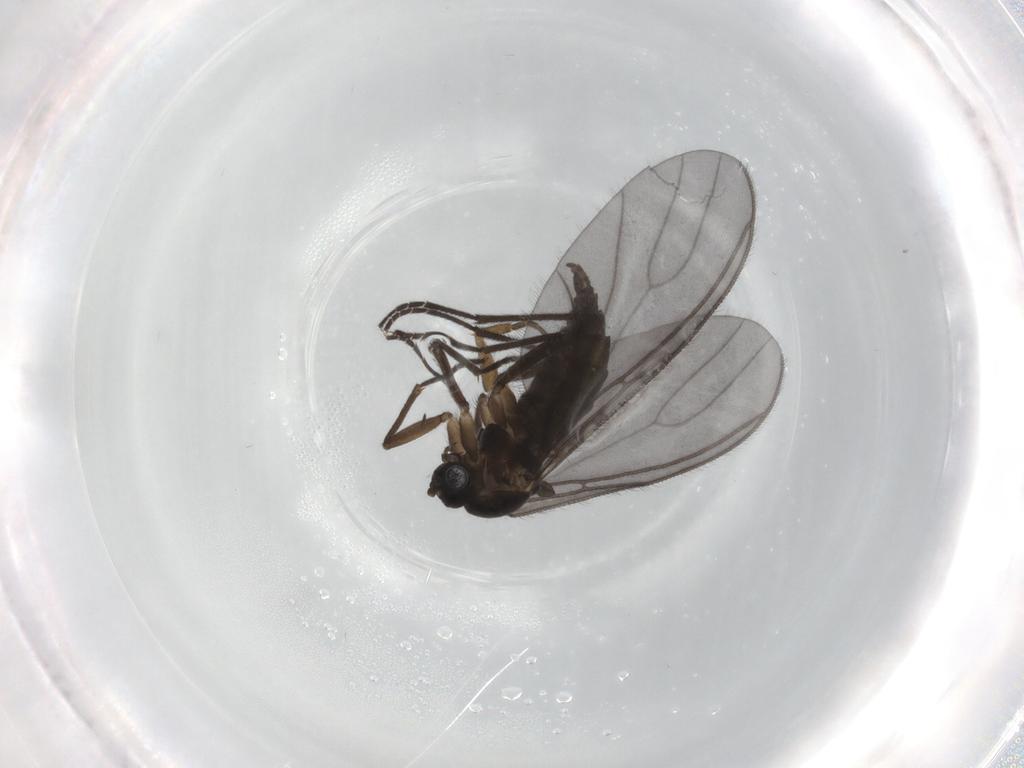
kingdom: Animalia
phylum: Arthropoda
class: Insecta
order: Diptera
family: Sciaridae
